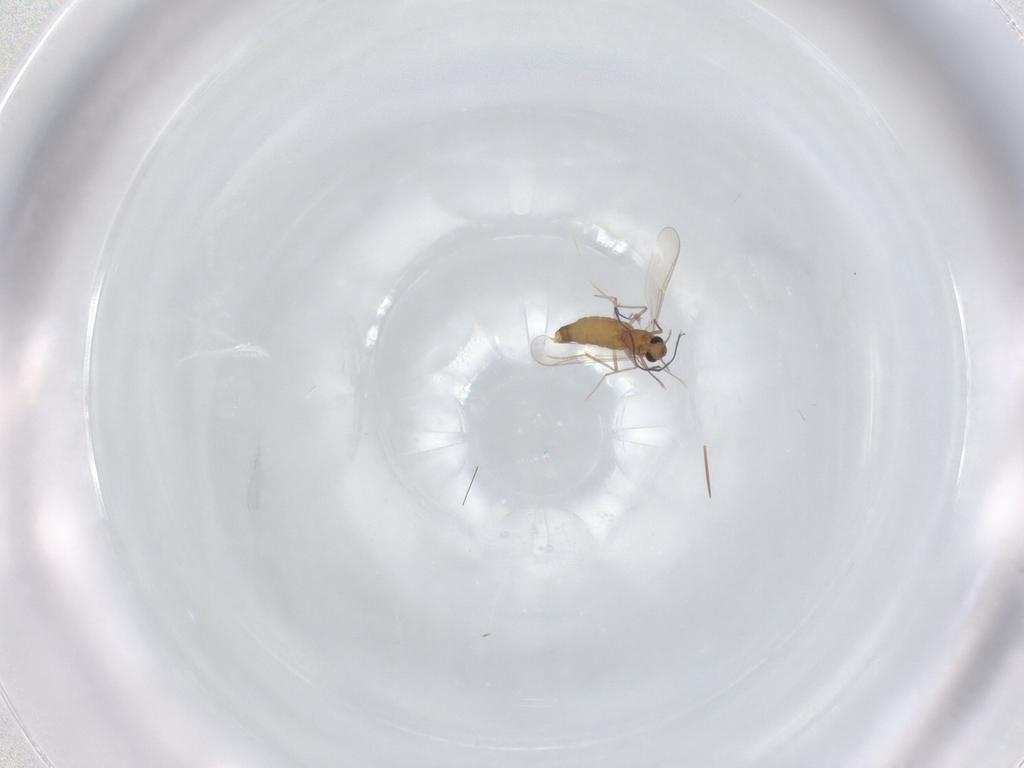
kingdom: Animalia
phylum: Arthropoda
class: Insecta
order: Diptera
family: Chironomidae
